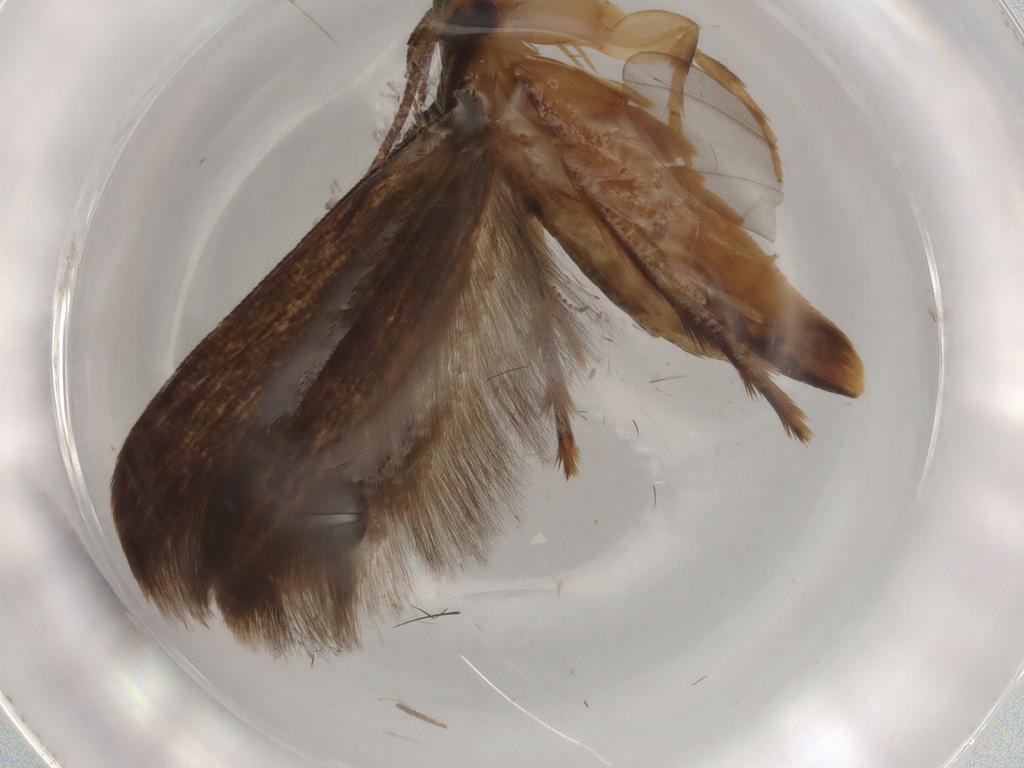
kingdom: Animalia
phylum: Arthropoda
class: Insecta
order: Lepidoptera
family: Tineidae
